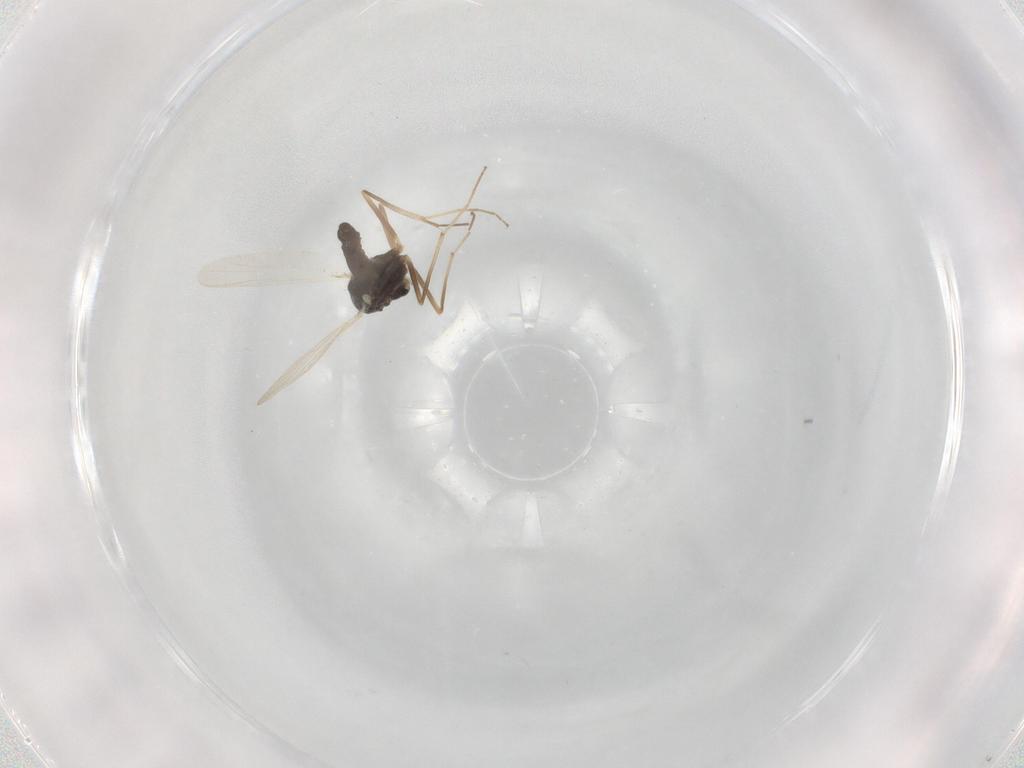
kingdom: Animalia
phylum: Arthropoda
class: Insecta
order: Diptera
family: Hybotidae
